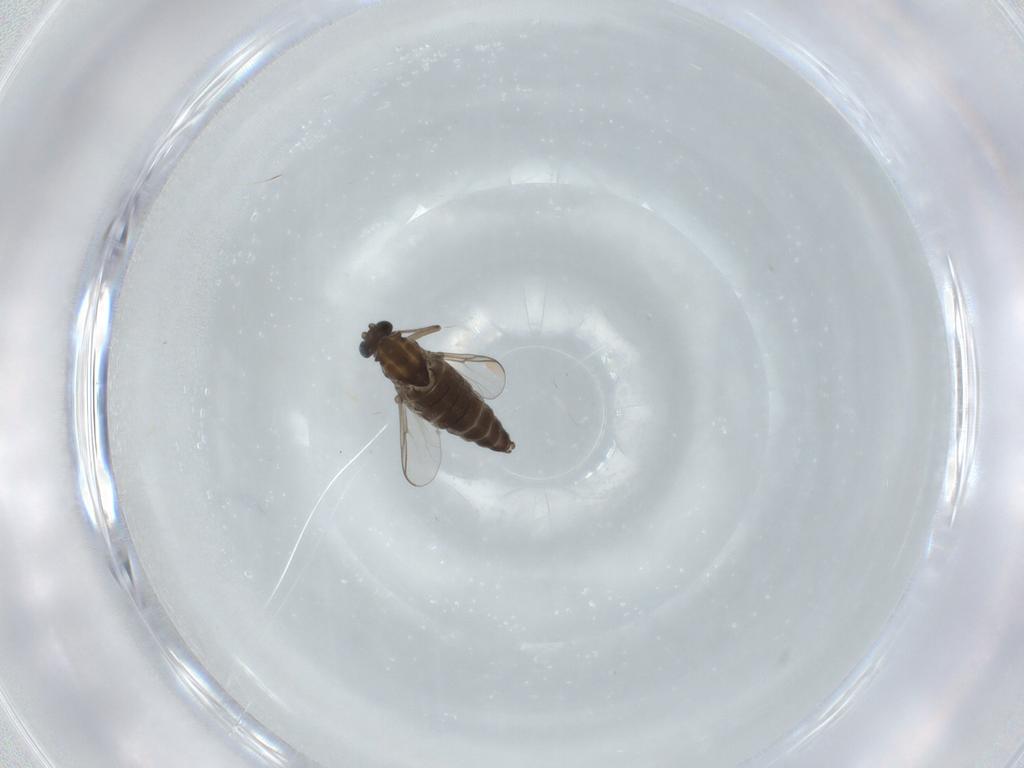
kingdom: Animalia
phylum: Arthropoda
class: Insecta
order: Diptera
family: Chironomidae
